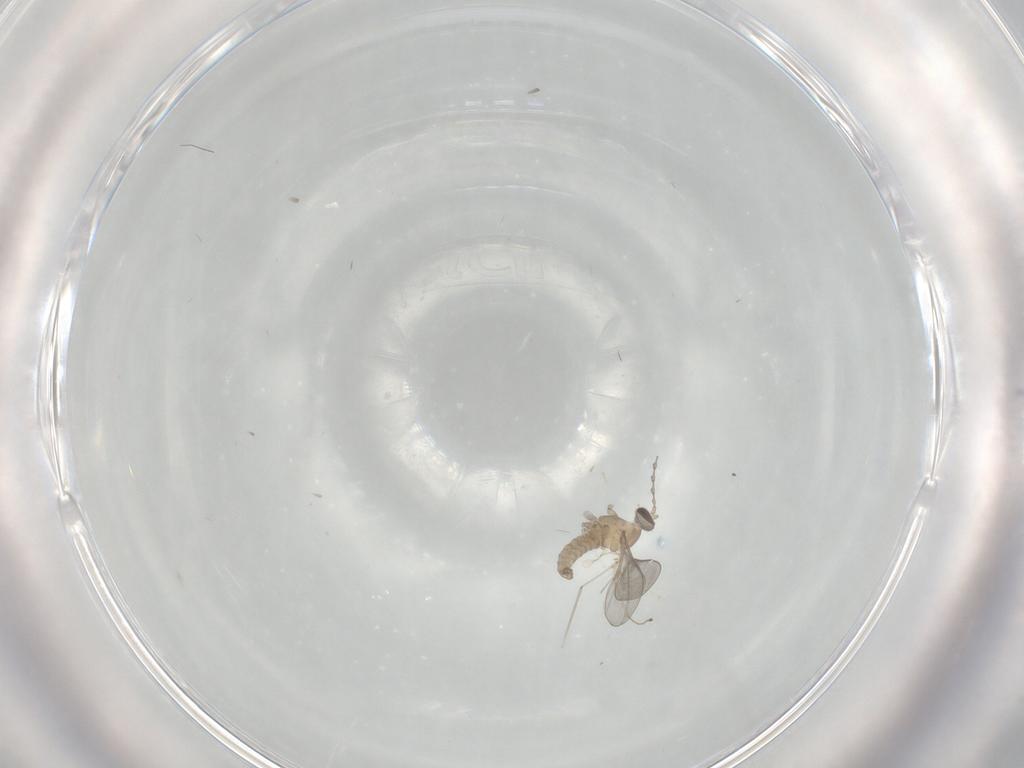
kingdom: Animalia
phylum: Arthropoda
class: Insecta
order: Diptera
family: Cecidomyiidae
